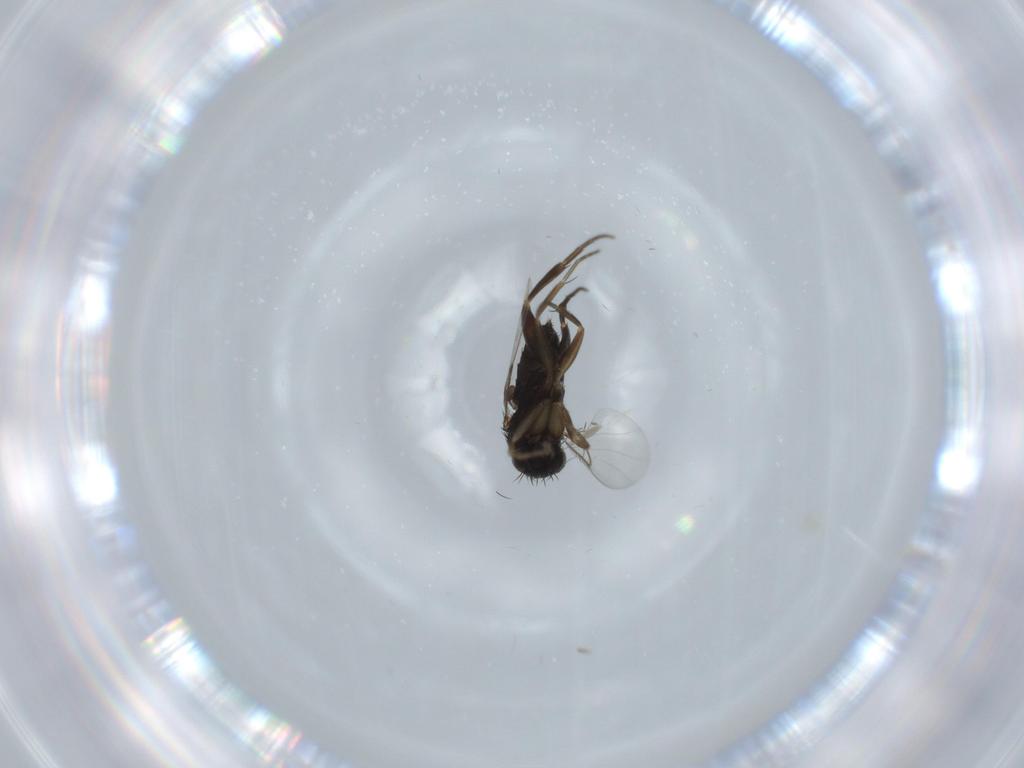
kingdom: Animalia
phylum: Arthropoda
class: Insecta
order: Diptera
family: Phoridae
